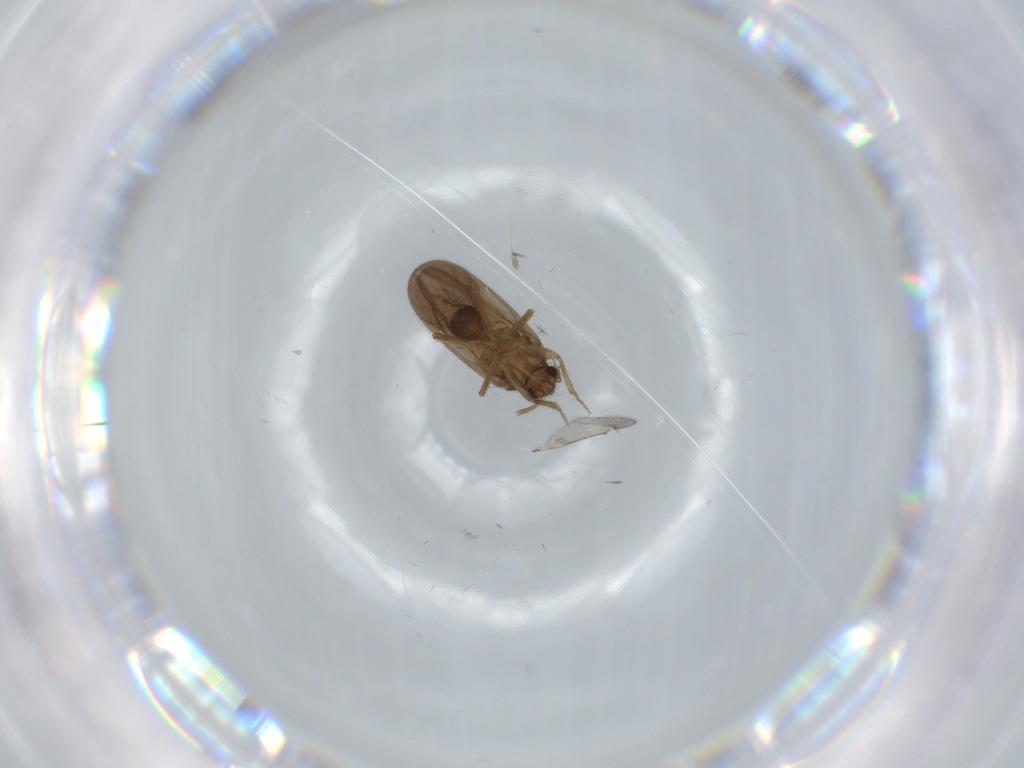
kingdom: Animalia
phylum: Arthropoda
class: Insecta
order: Hemiptera
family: Ceratocombidae
